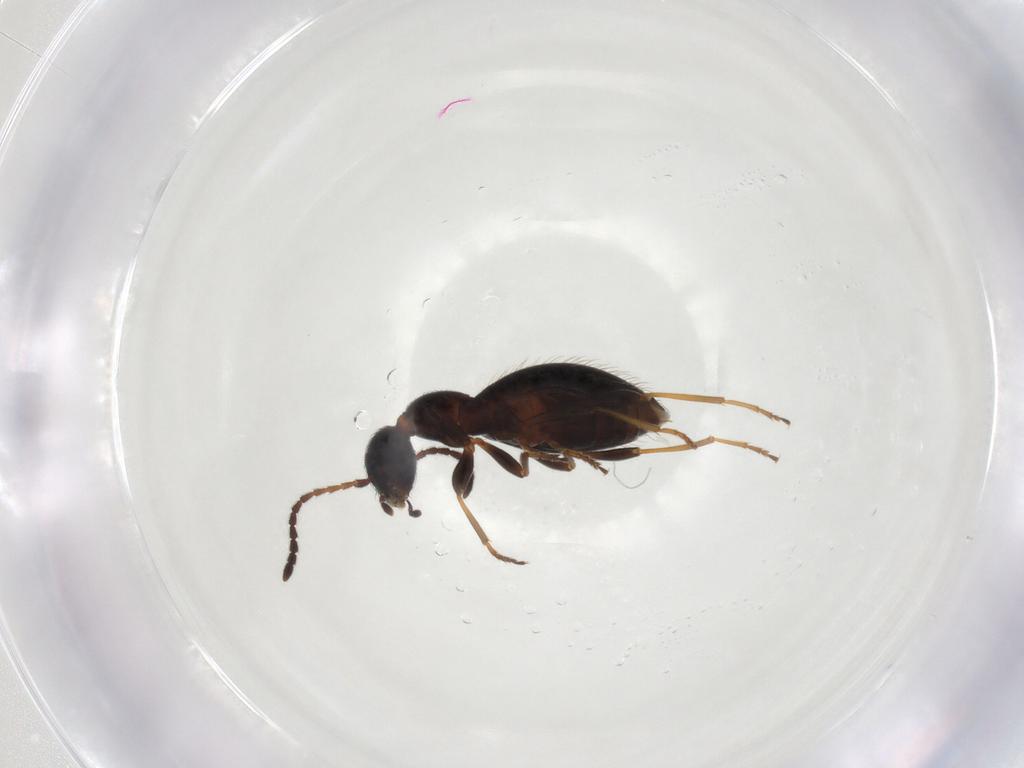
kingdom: Animalia
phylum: Arthropoda
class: Insecta
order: Coleoptera
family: Anthicidae
